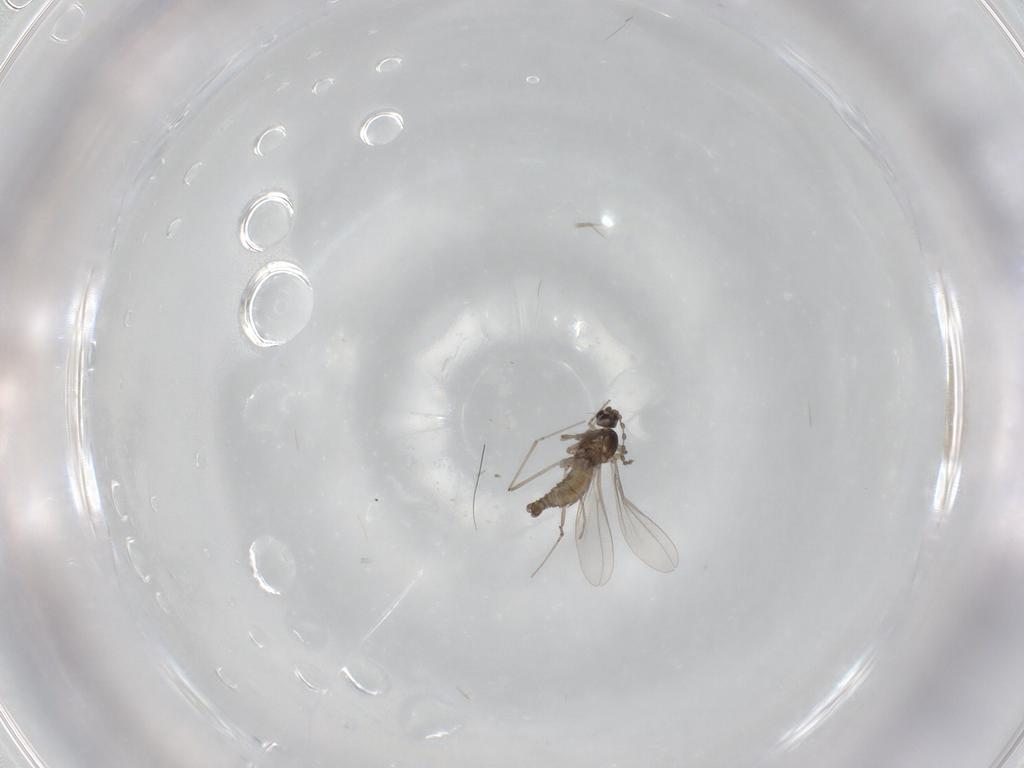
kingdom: Animalia
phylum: Arthropoda
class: Insecta
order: Diptera
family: Cecidomyiidae
